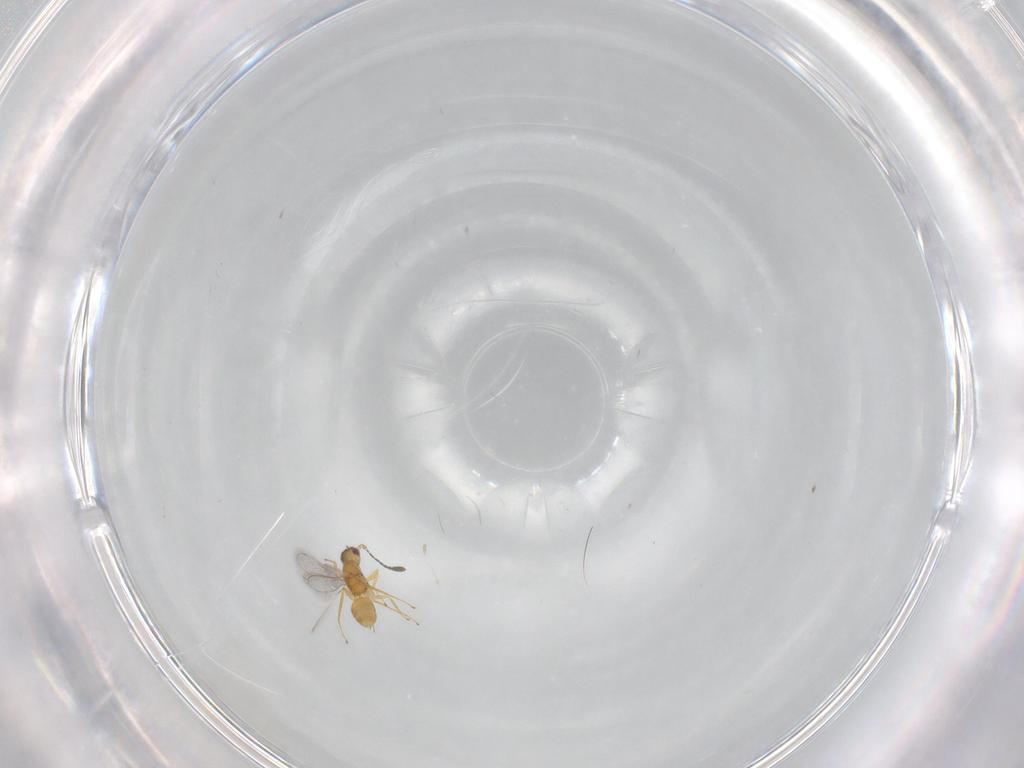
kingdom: Animalia
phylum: Arthropoda
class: Insecta
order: Hymenoptera
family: Mymaridae
